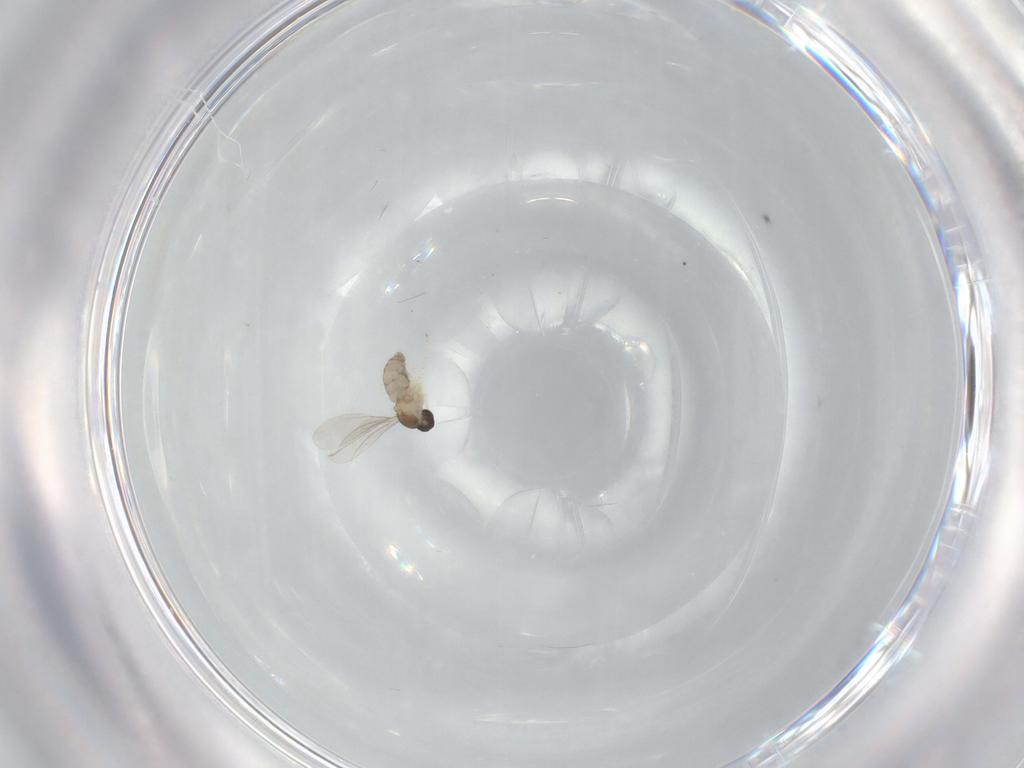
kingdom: Animalia
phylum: Arthropoda
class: Insecta
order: Diptera
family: Cecidomyiidae
